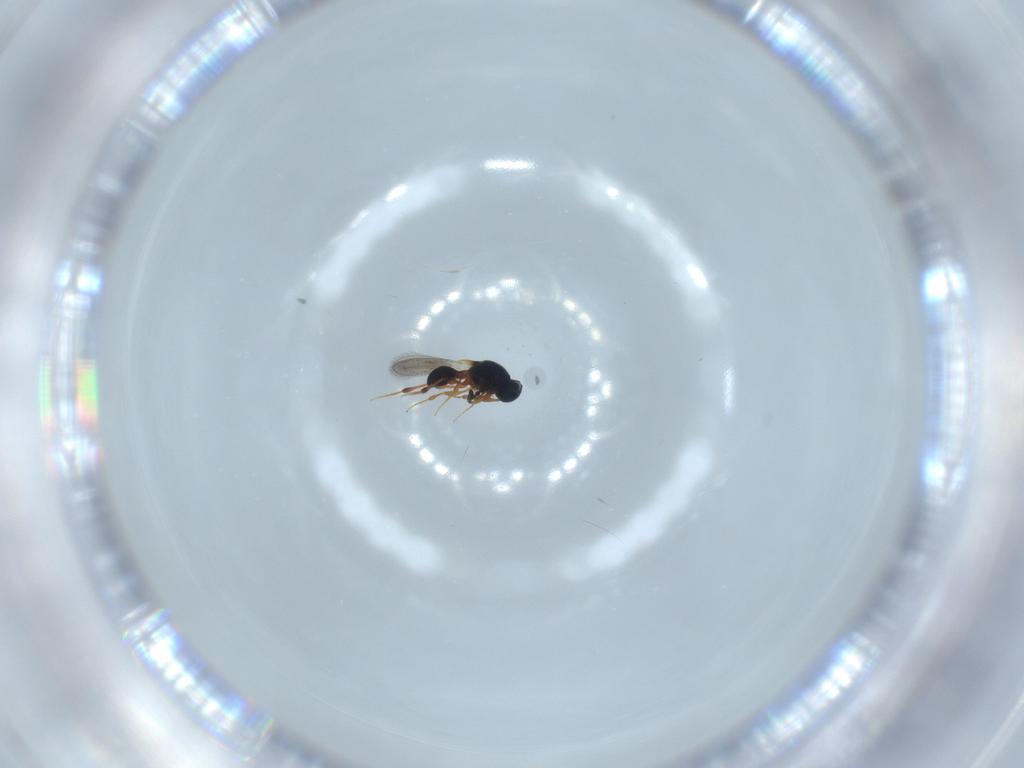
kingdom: Animalia
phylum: Arthropoda
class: Insecta
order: Hymenoptera
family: Platygastridae
